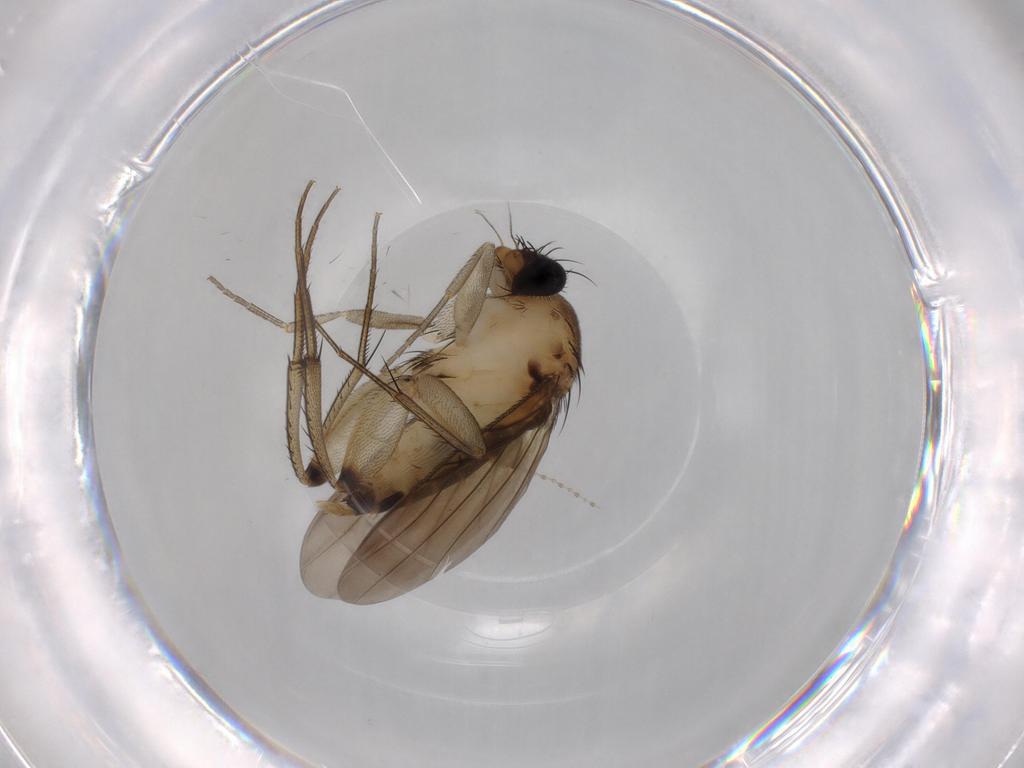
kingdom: Animalia
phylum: Arthropoda
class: Insecta
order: Diptera
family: Phoridae
